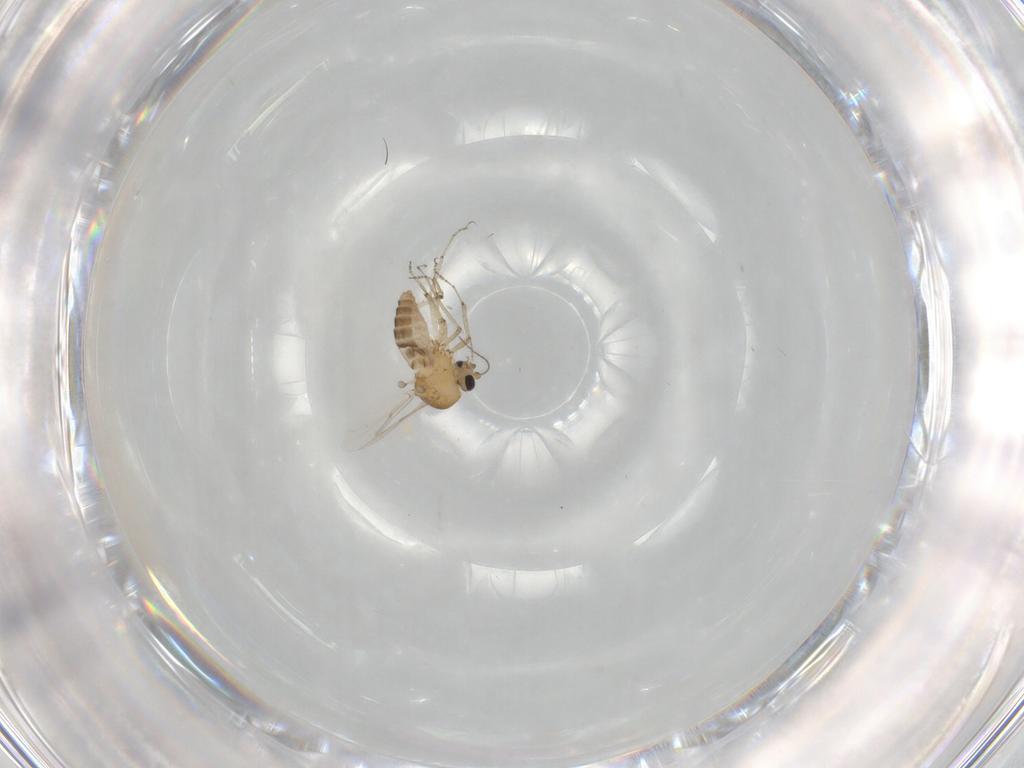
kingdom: Animalia
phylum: Arthropoda
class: Insecta
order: Diptera
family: Ceratopogonidae
